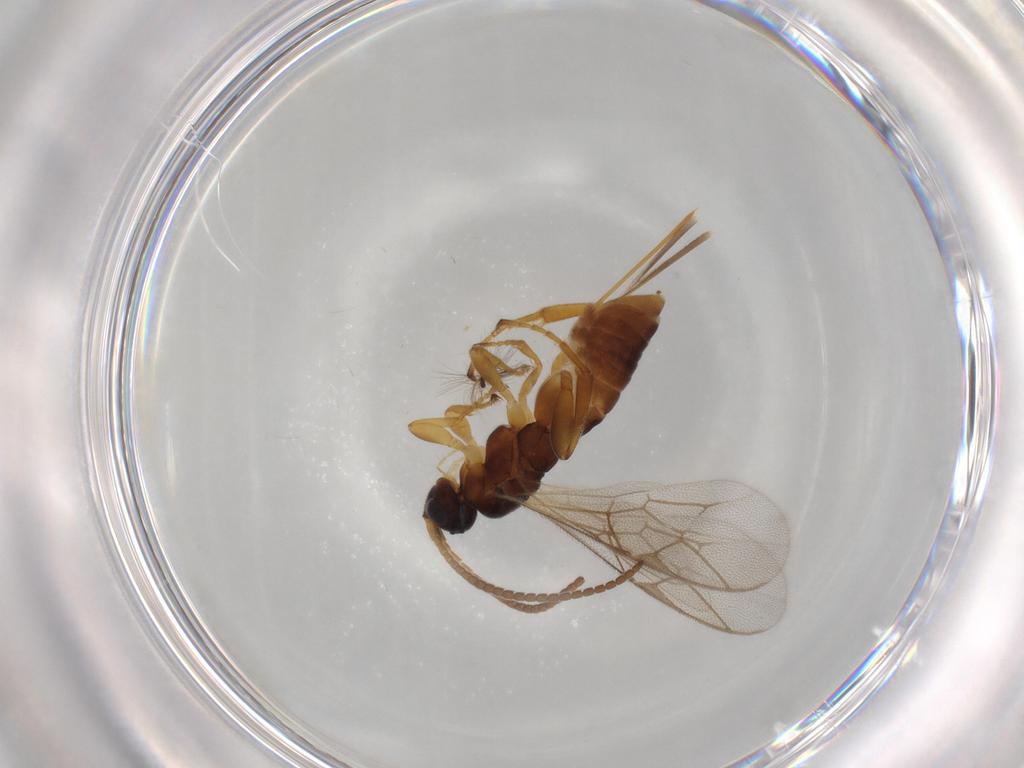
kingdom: Animalia
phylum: Arthropoda
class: Insecta
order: Hymenoptera
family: Ichneumonidae
